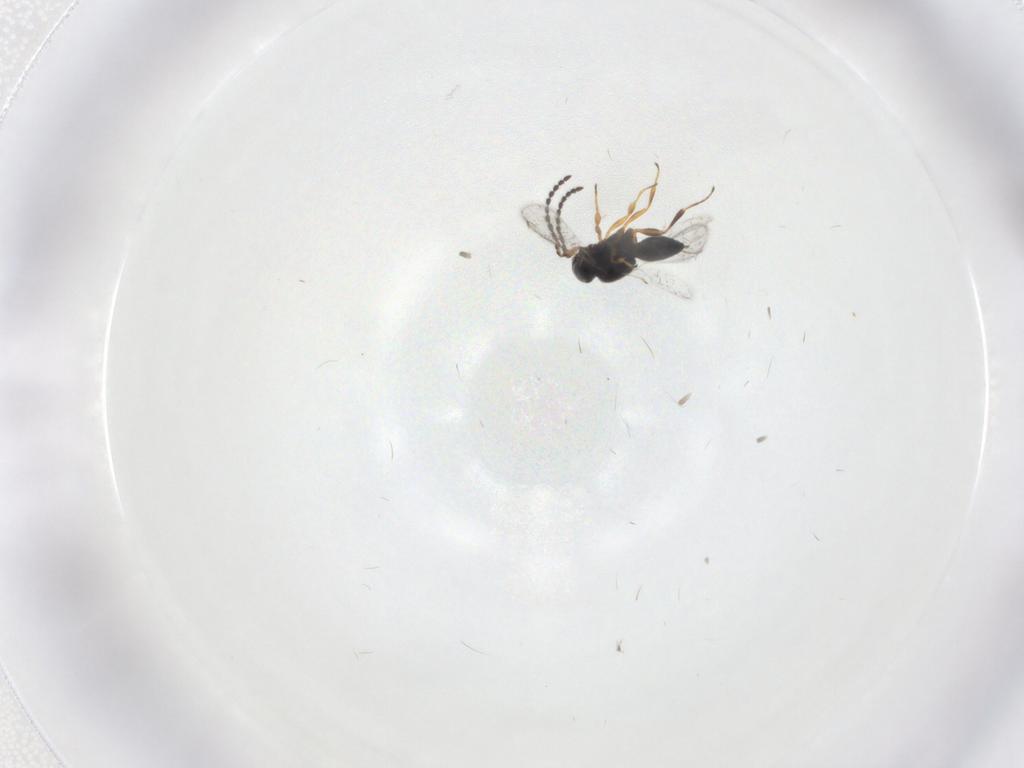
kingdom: Animalia
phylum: Arthropoda
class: Insecta
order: Hymenoptera
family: Scelionidae
